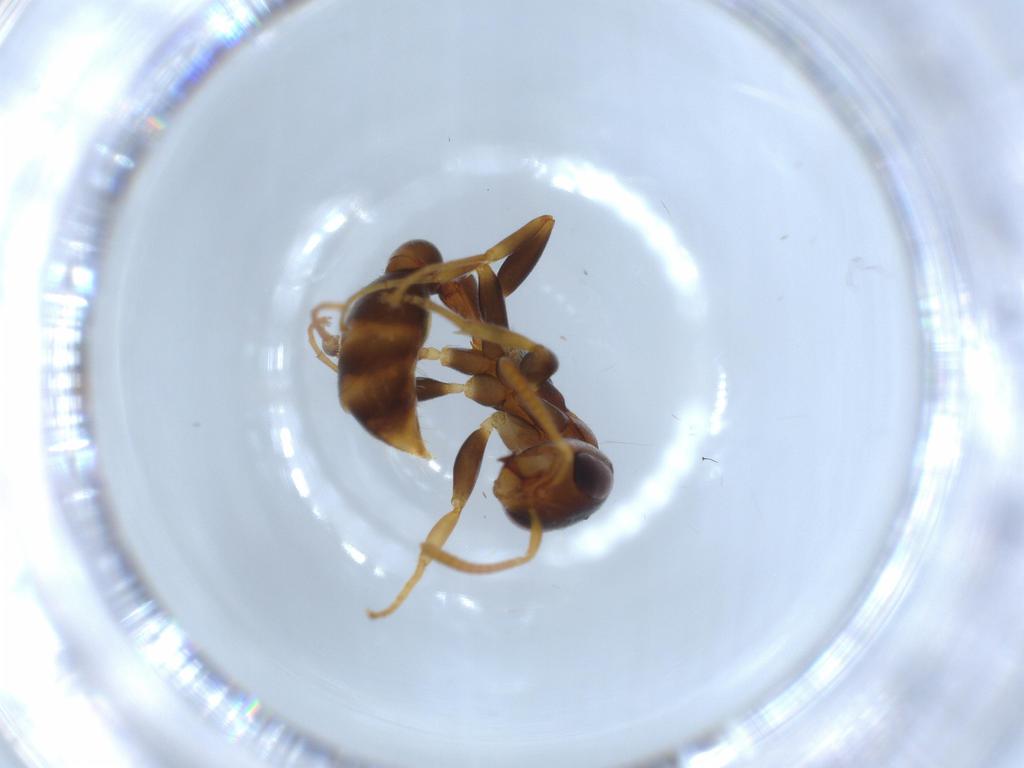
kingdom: Animalia
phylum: Arthropoda
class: Insecta
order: Hymenoptera
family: Formicidae
